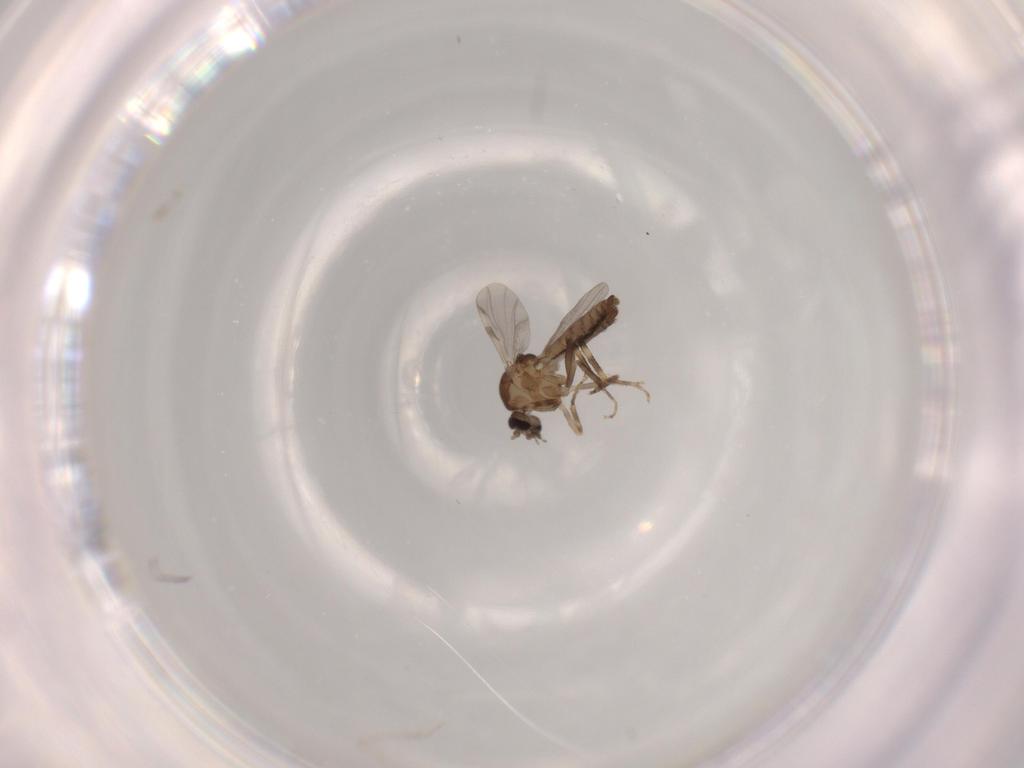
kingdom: Animalia
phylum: Arthropoda
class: Insecta
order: Diptera
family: Ceratopogonidae
